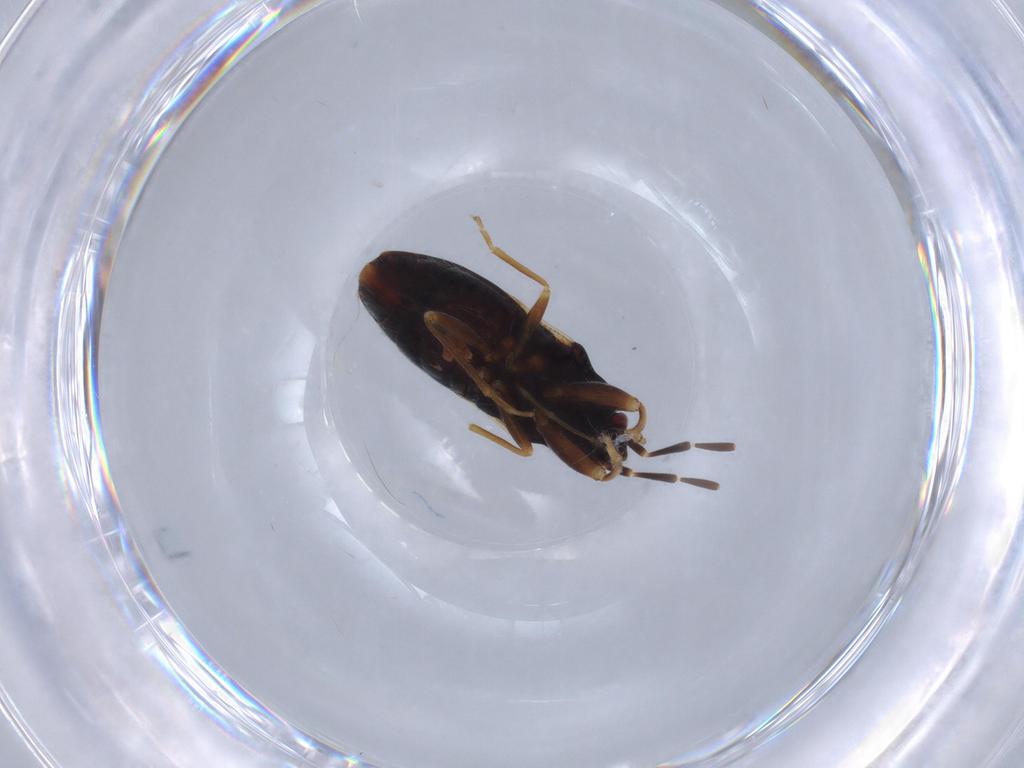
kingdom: Animalia
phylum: Arthropoda
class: Insecta
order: Hemiptera
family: Rhyparochromidae
